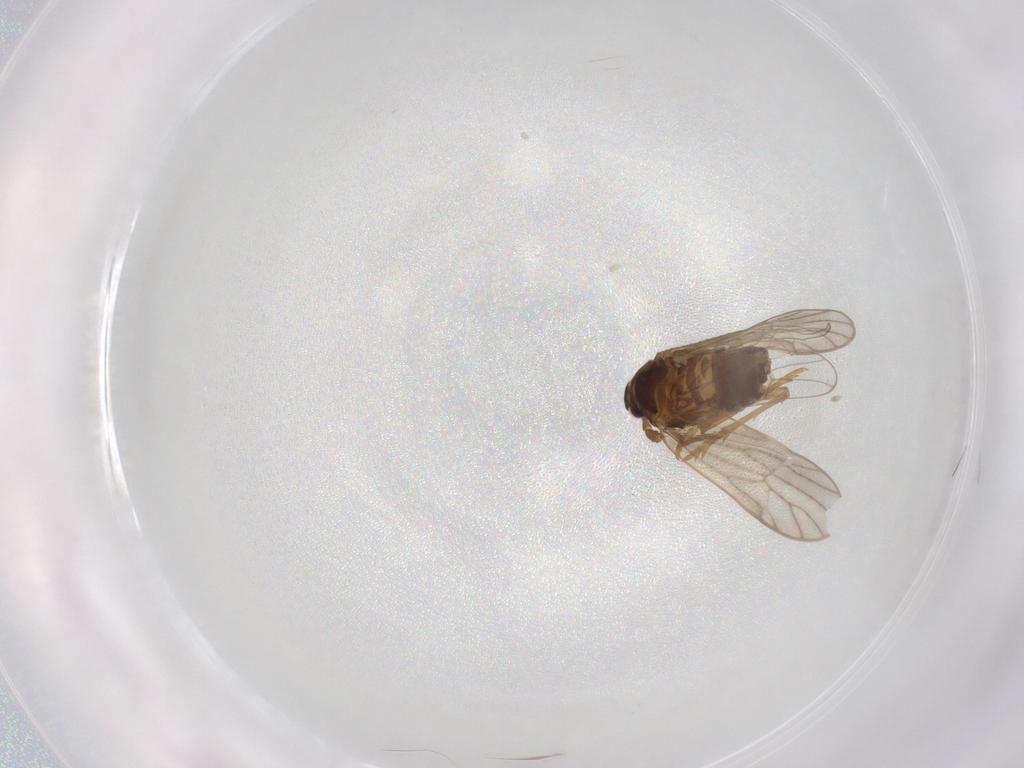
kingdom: Animalia
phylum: Arthropoda
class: Insecta
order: Hemiptera
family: Delphacidae
